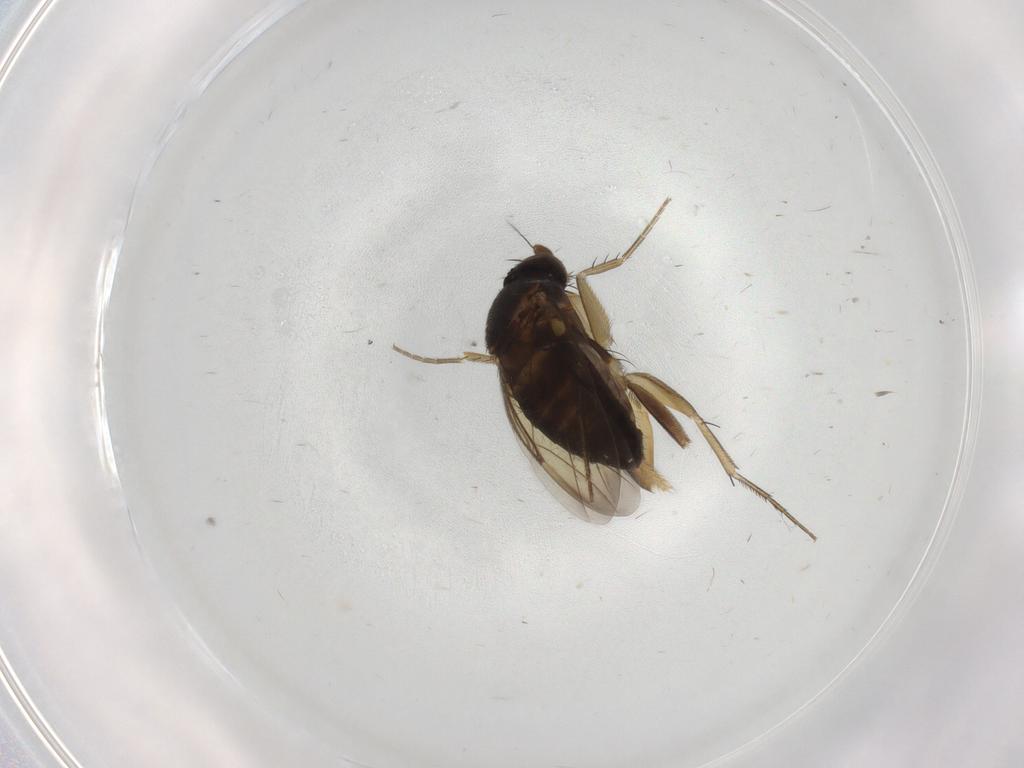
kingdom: Animalia
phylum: Arthropoda
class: Insecta
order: Diptera
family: Phoridae
